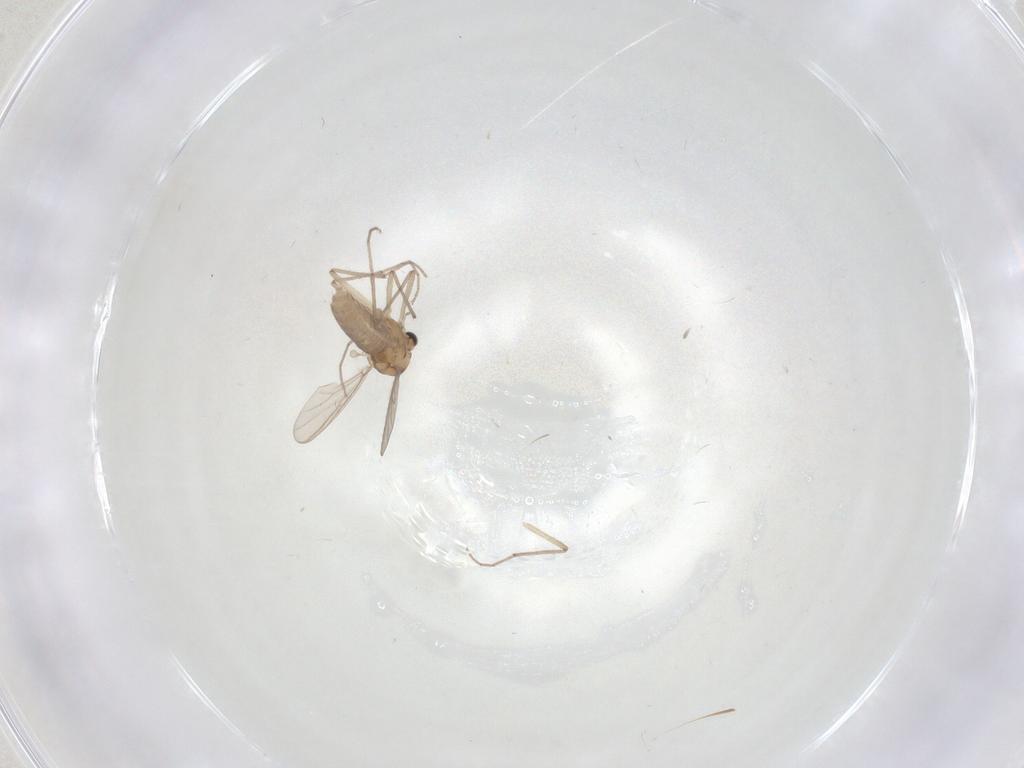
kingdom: Animalia
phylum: Arthropoda
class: Insecta
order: Diptera
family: Chironomidae
